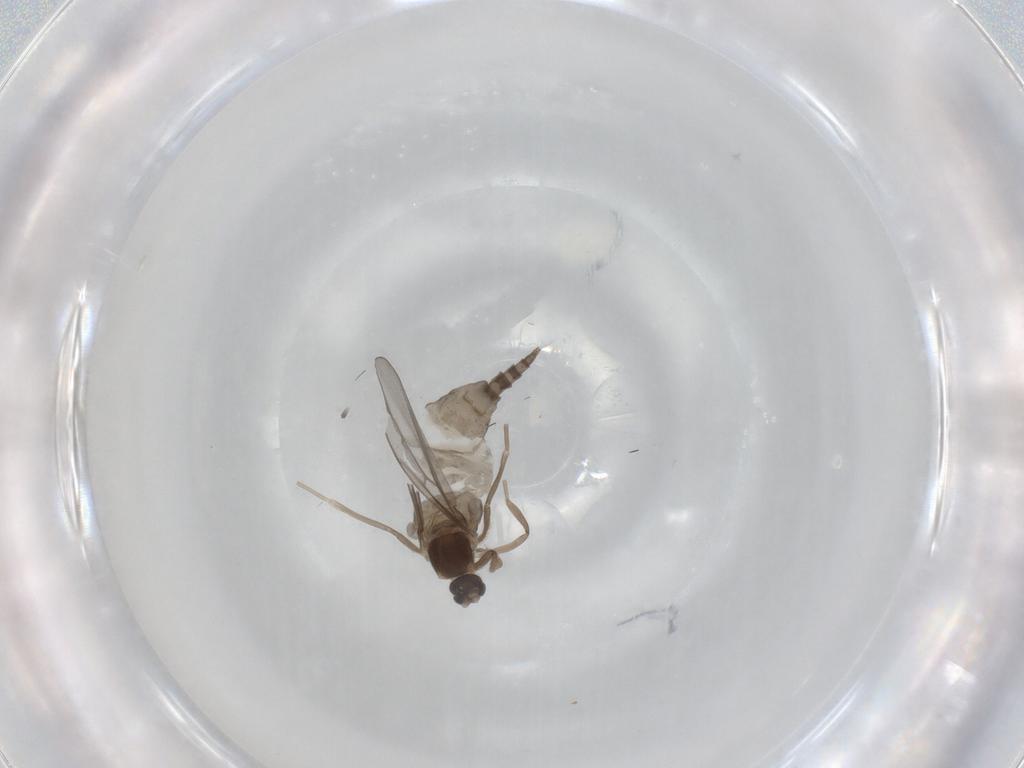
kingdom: Animalia
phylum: Arthropoda
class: Insecta
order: Diptera
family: Cecidomyiidae
